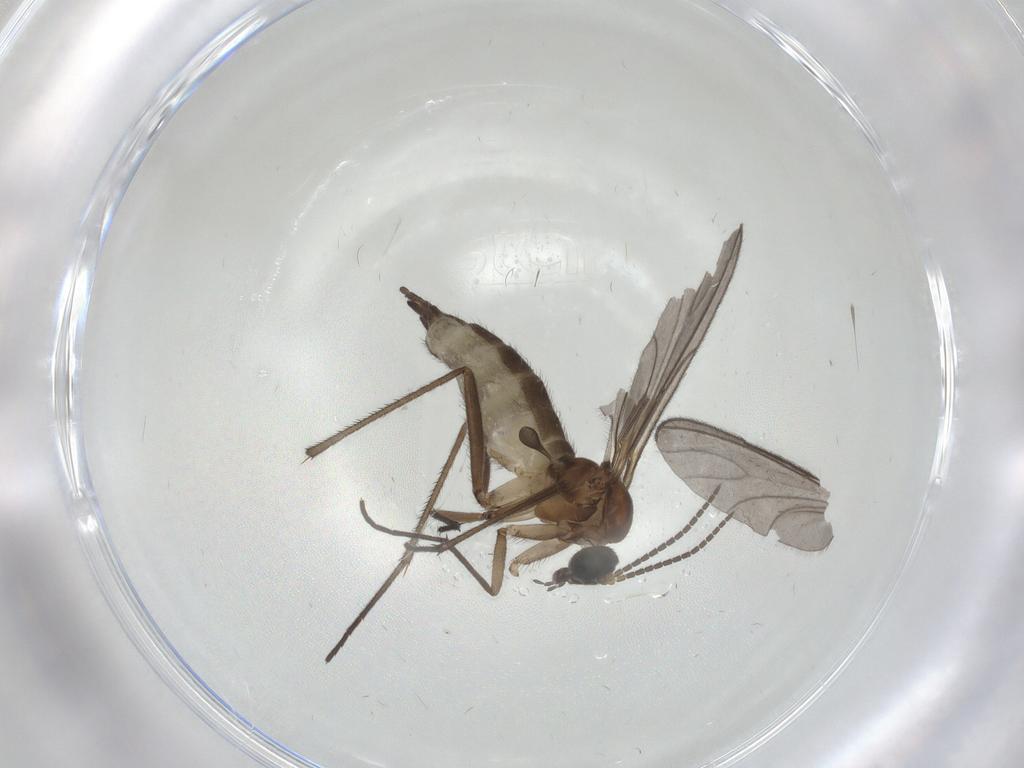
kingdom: Animalia
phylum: Arthropoda
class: Insecta
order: Diptera
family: Sciaridae
